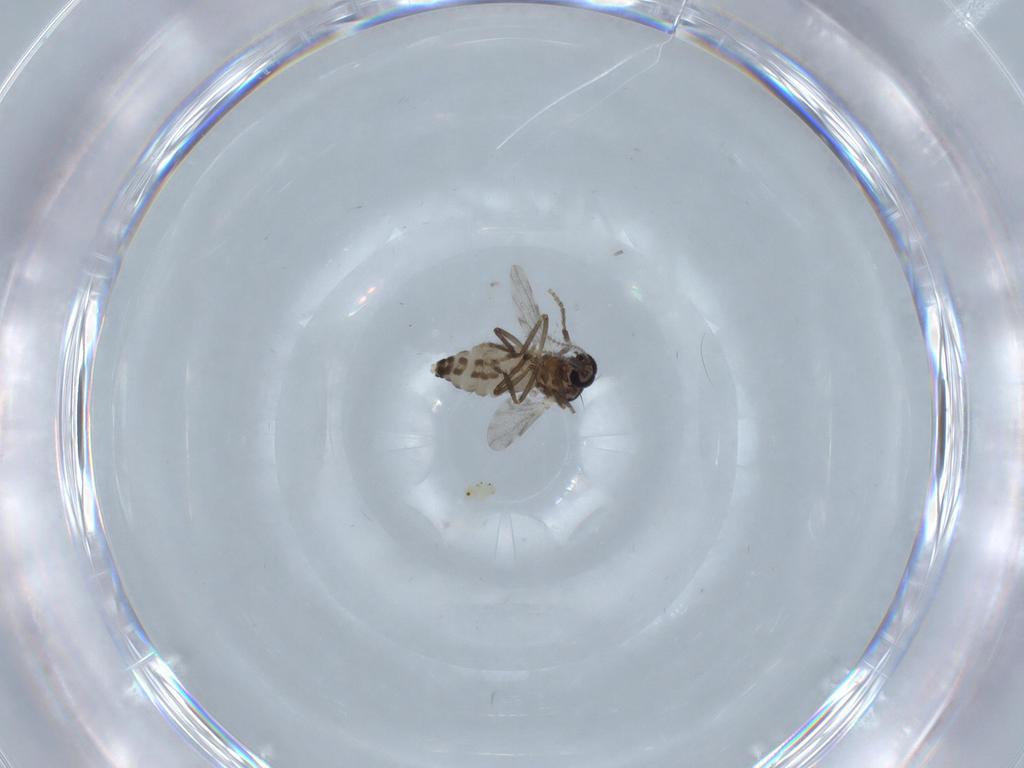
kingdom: Animalia
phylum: Arthropoda
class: Insecta
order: Diptera
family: Ceratopogonidae
